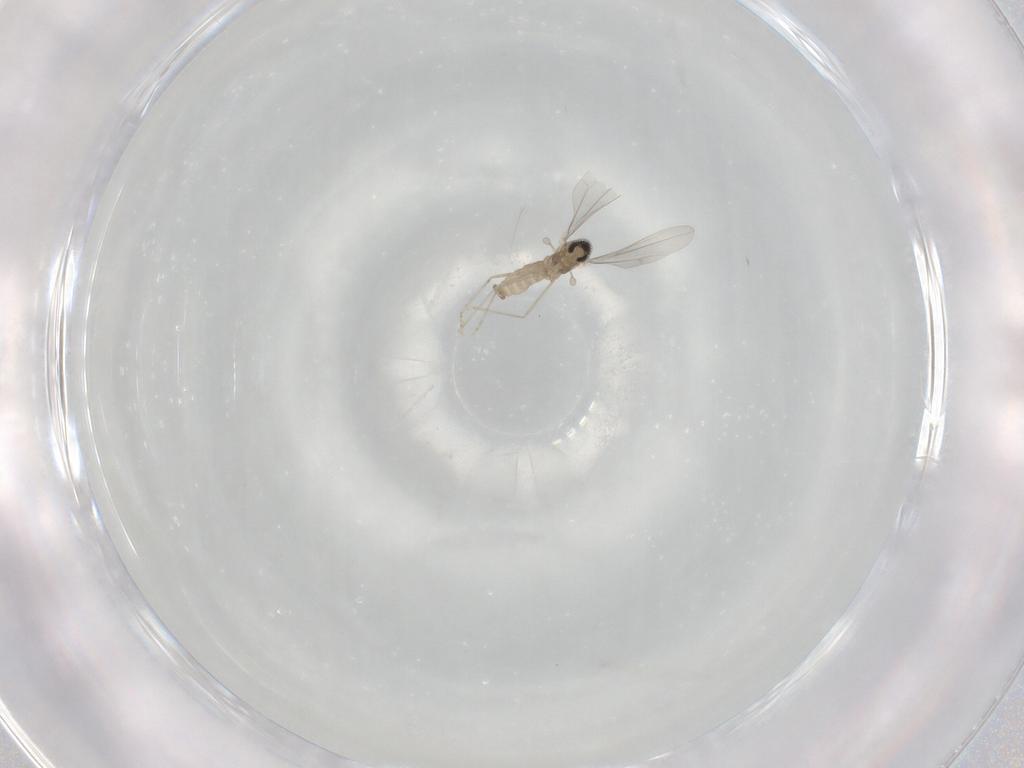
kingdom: Animalia
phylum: Arthropoda
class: Insecta
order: Diptera
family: Cecidomyiidae
